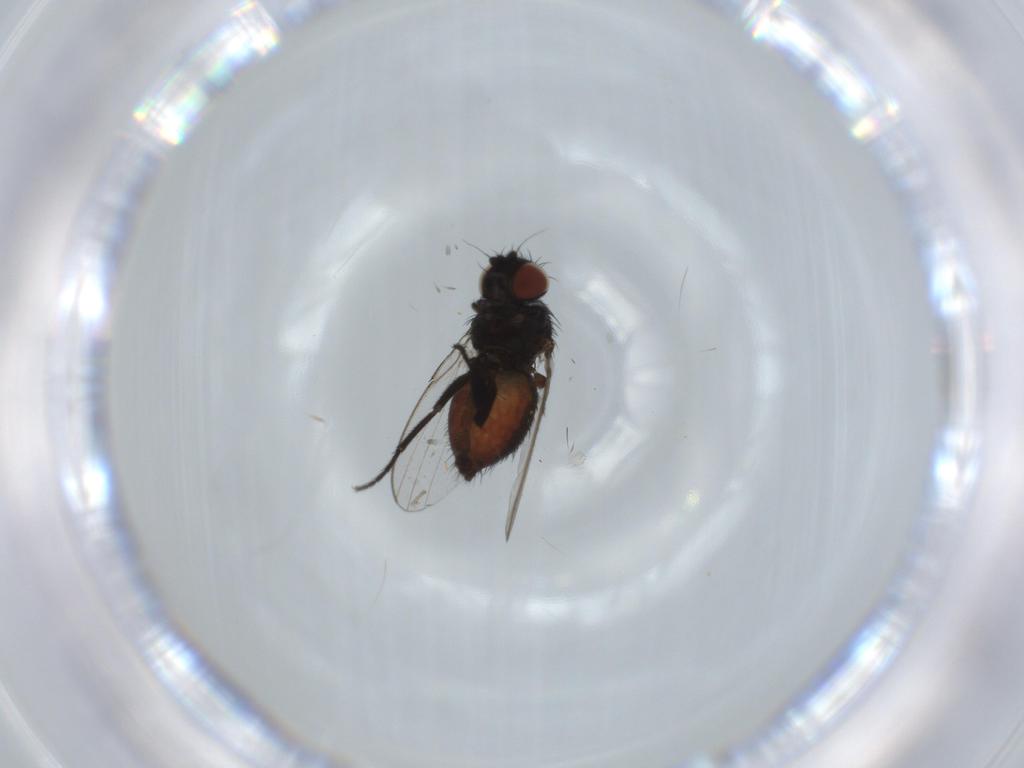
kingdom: Animalia
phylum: Arthropoda
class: Insecta
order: Diptera
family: Milichiidae
